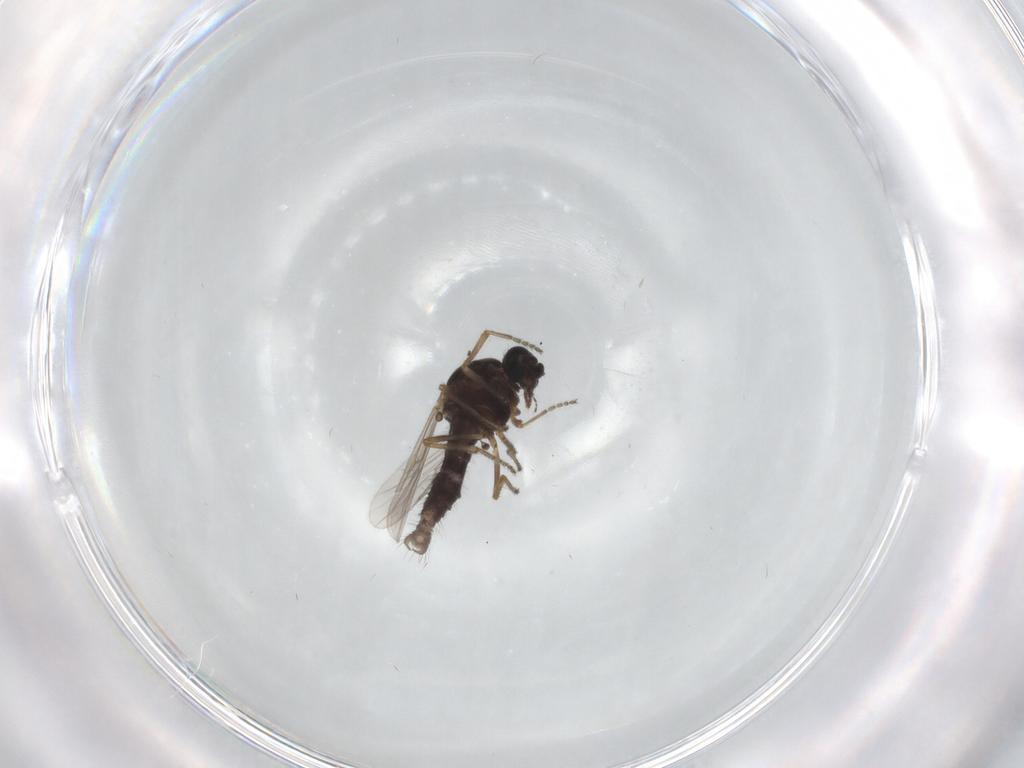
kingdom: Animalia
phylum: Arthropoda
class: Insecta
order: Diptera
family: Ceratopogonidae
